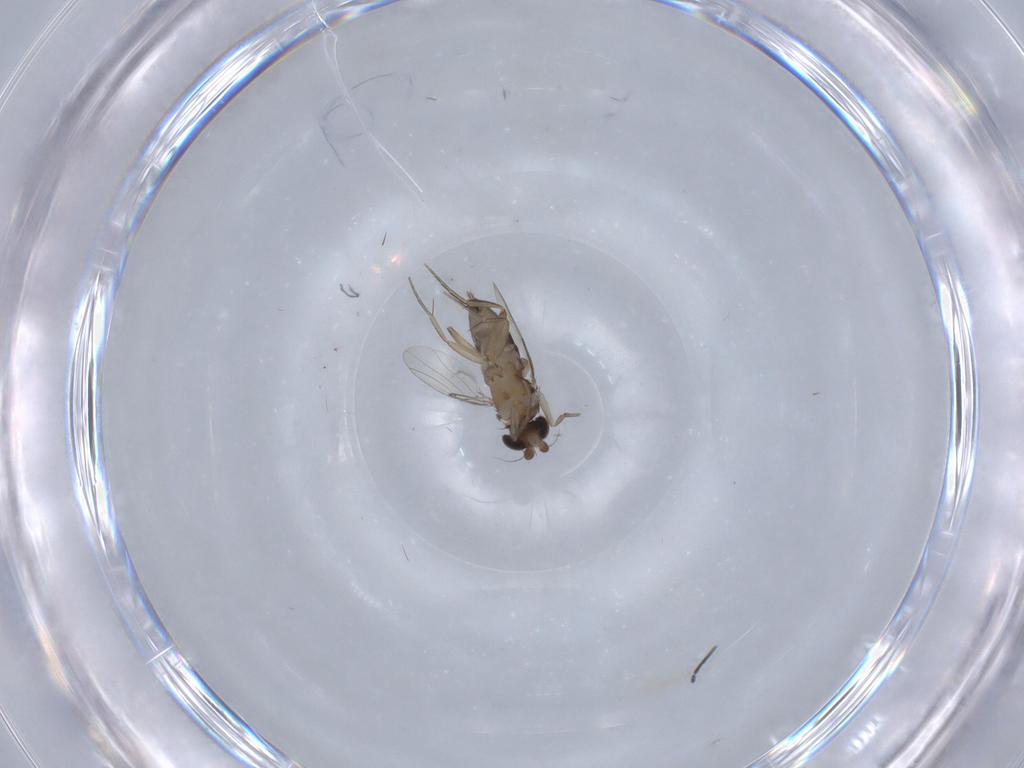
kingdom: Animalia
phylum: Arthropoda
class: Insecta
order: Diptera
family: Phoridae
